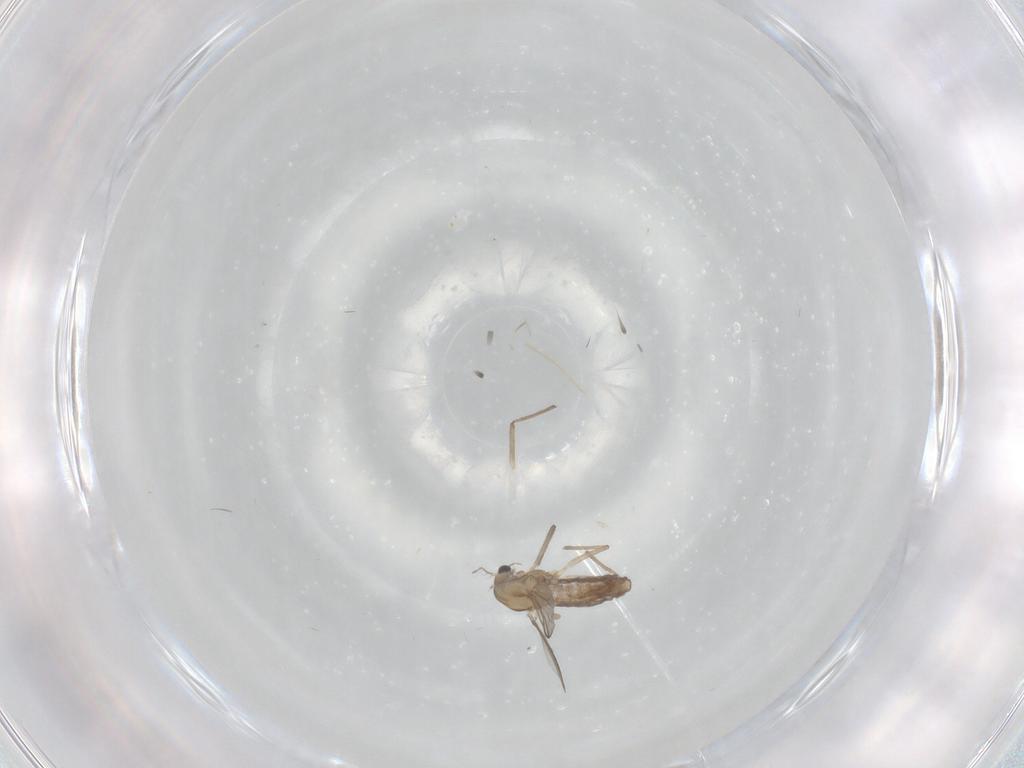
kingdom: Animalia
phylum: Arthropoda
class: Insecta
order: Diptera
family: Chironomidae
